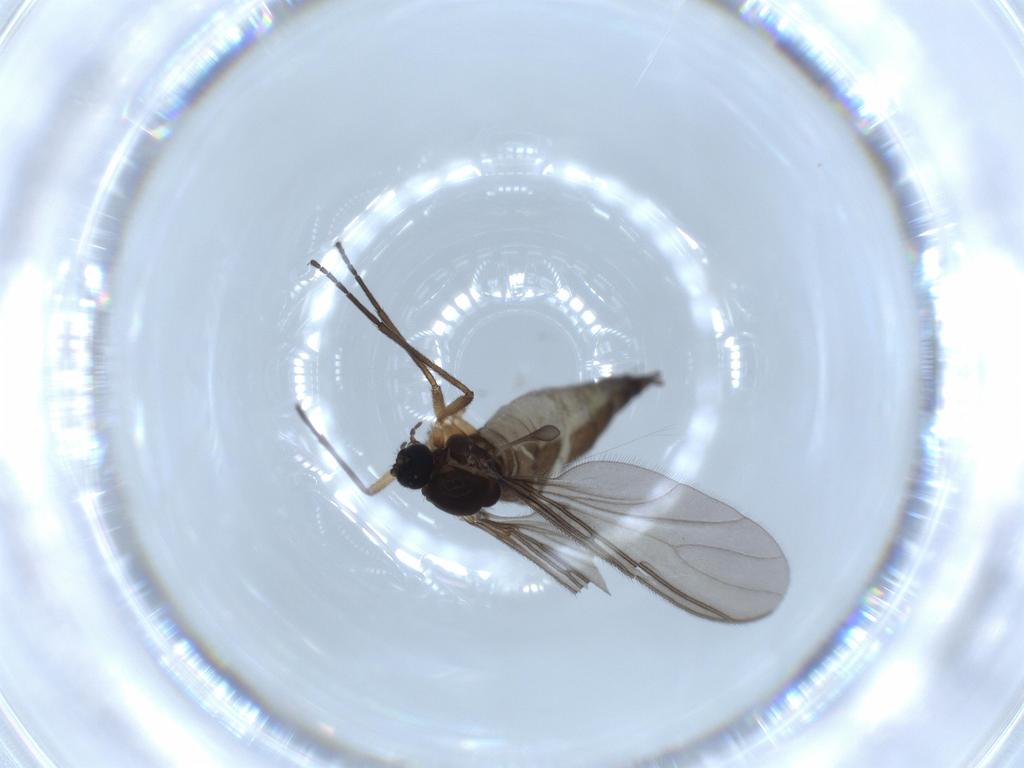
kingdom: Animalia
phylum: Arthropoda
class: Insecta
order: Diptera
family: Sciaridae
